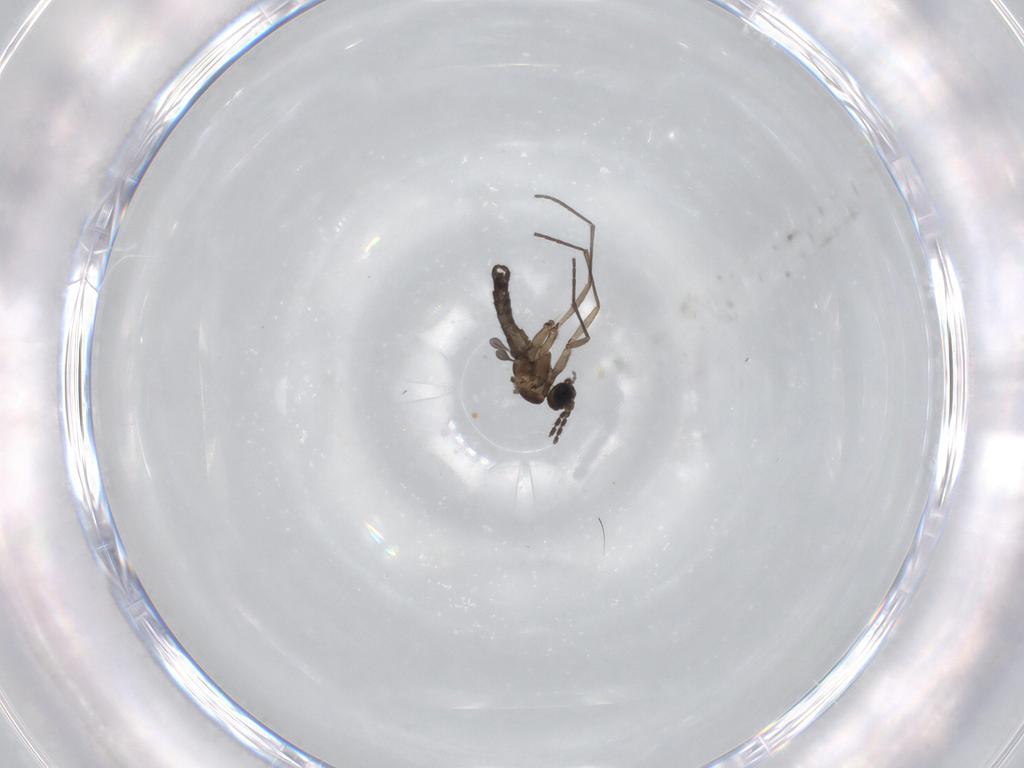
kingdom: Animalia
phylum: Arthropoda
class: Insecta
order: Diptera
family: Sciaridae
